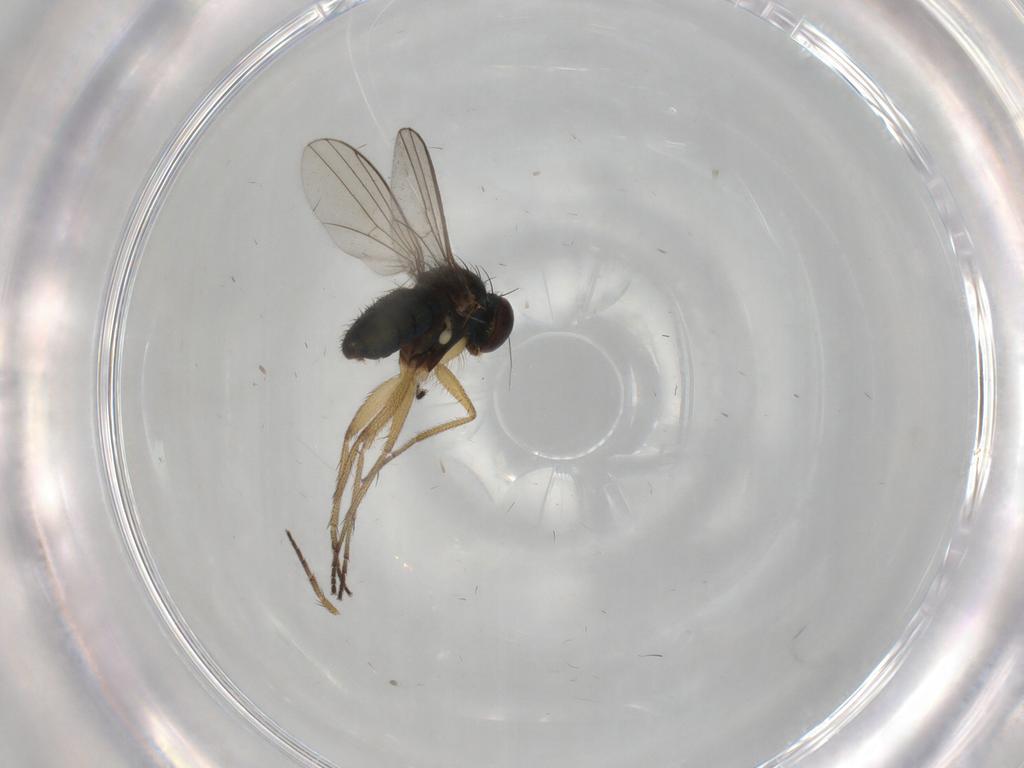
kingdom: Animalia
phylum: Arthropoda
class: Insecta
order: Diptera
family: Dolichopodidae
